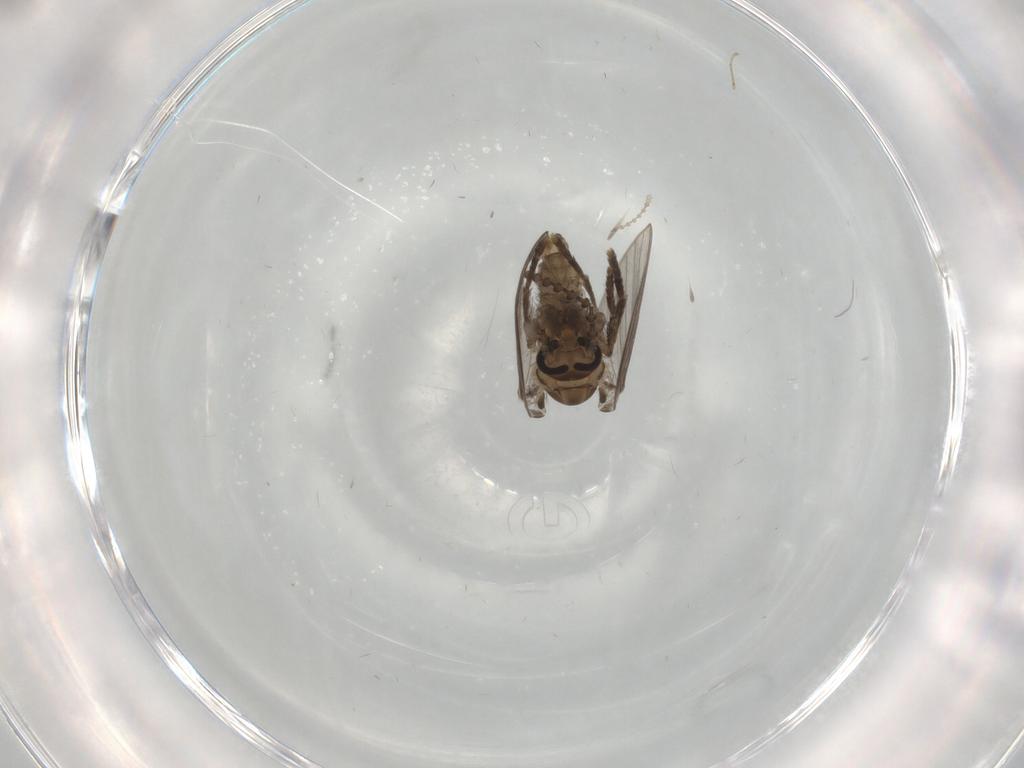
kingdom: Animalia
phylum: Arthropoda
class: Insecta
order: Diptera
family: Psychodidae
